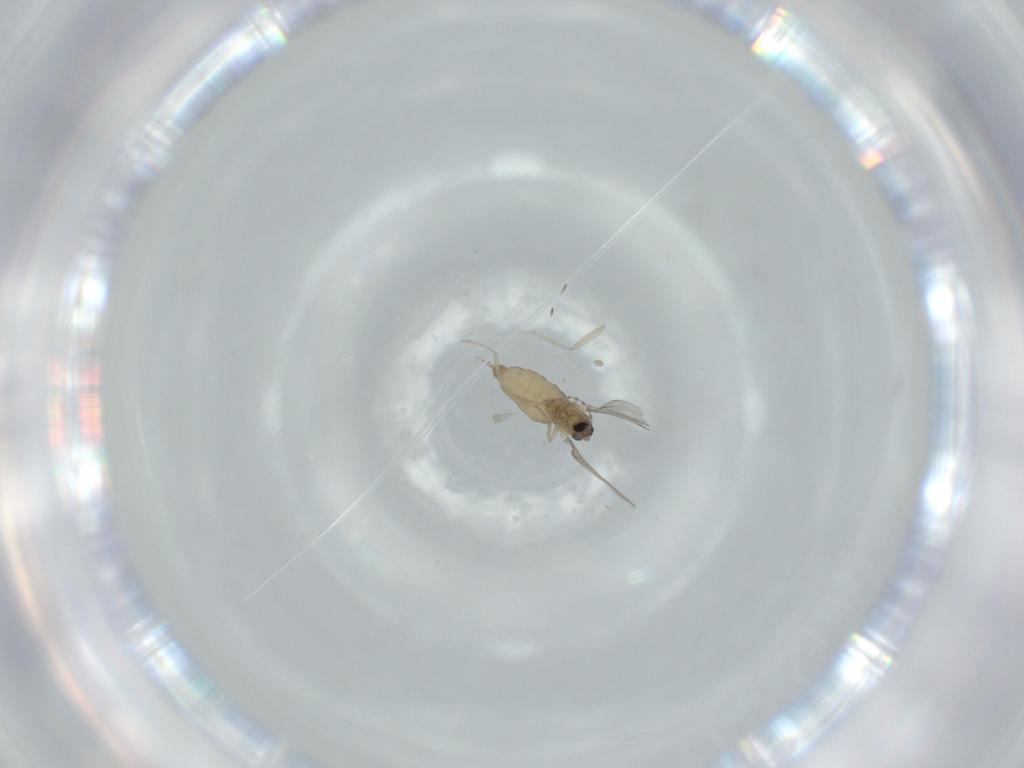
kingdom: Animalia
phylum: Arthropoda
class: Insecta
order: Diptera
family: Cecidomyiidae
